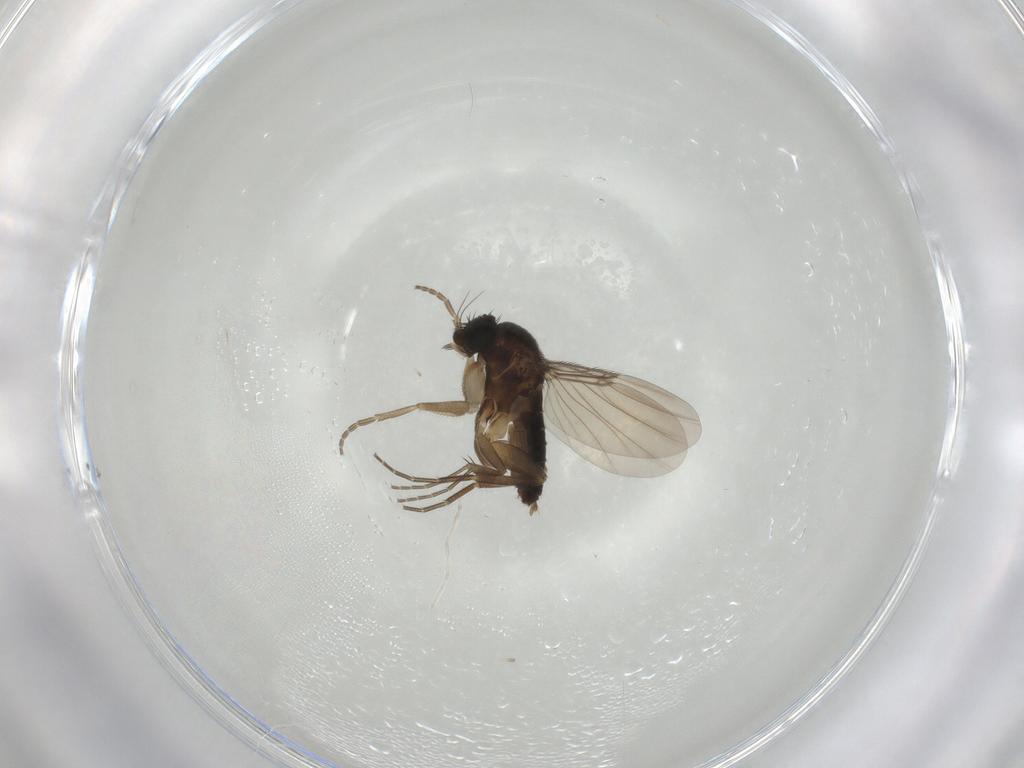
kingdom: Animalia
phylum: Arthropoda
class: Insecta
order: Diptera
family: Phoridae
